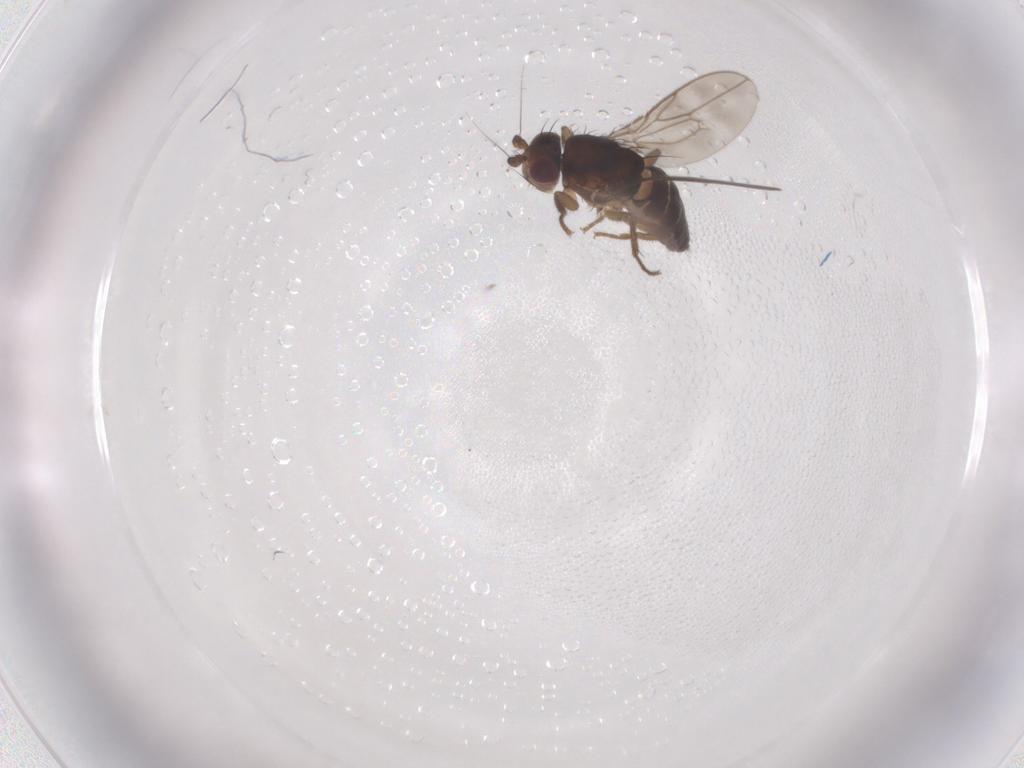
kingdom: Animalia
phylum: Arthropoda
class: Insecta
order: Diptera
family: Sphaeroceridae
